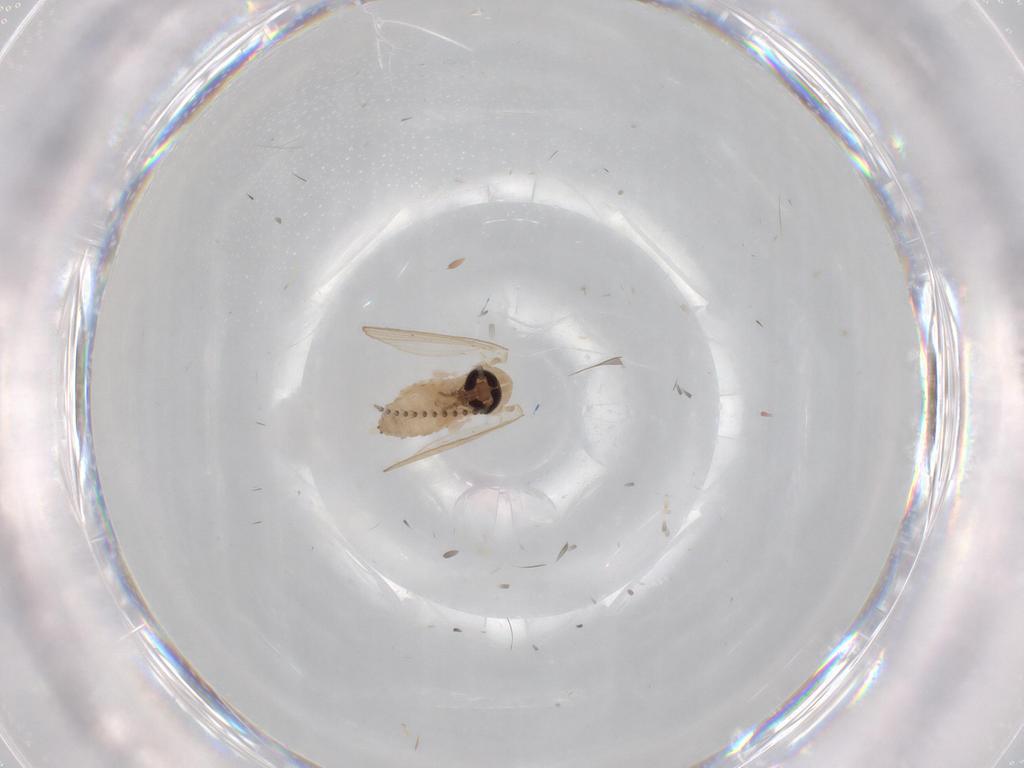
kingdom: Animalia
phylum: Arthropoda
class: Insecta
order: Diptera
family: Psychodidae
